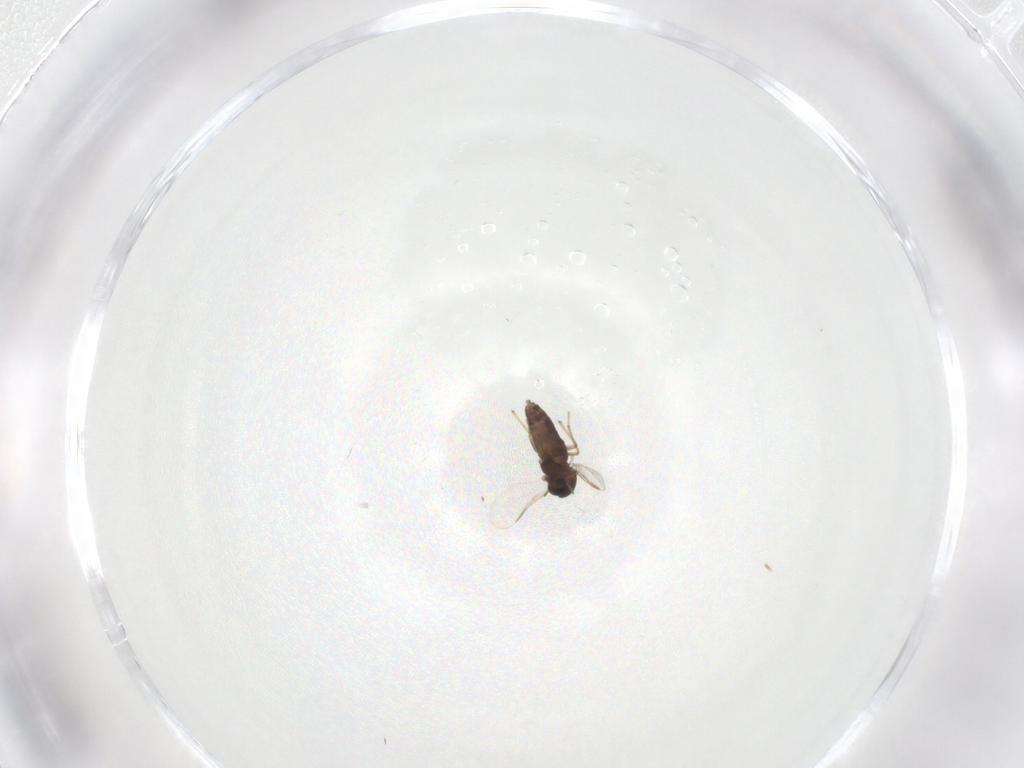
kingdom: Animalia
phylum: Arthropoda
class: Insecta
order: Diptera
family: Chironomidae
